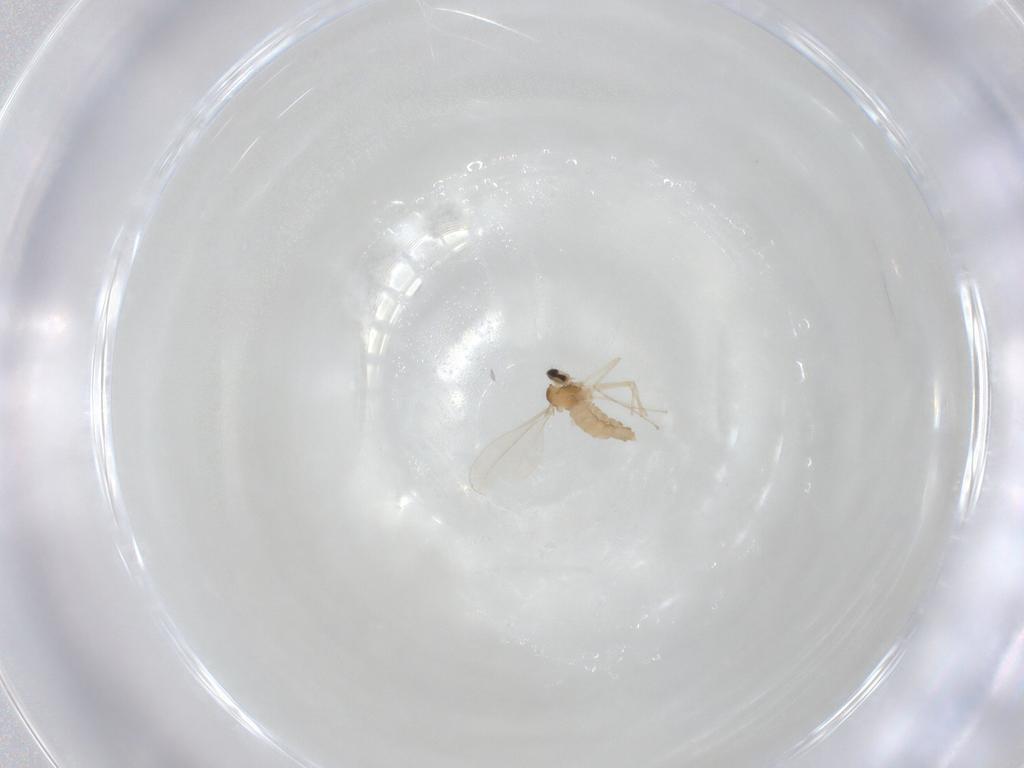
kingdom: Animalia
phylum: Arthropoda
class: Insecta
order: Diptera
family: Cecidomyiidae
